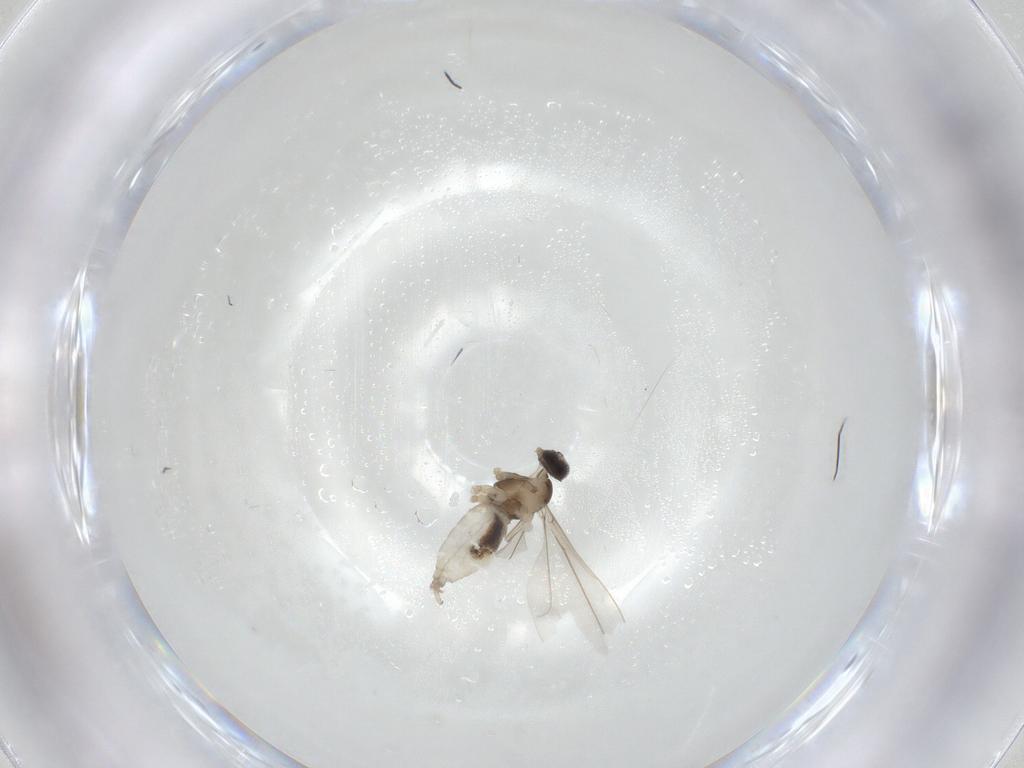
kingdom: Animalia
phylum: Arthropoda
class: Insecta
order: Diptera
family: Cecidomyiidae
